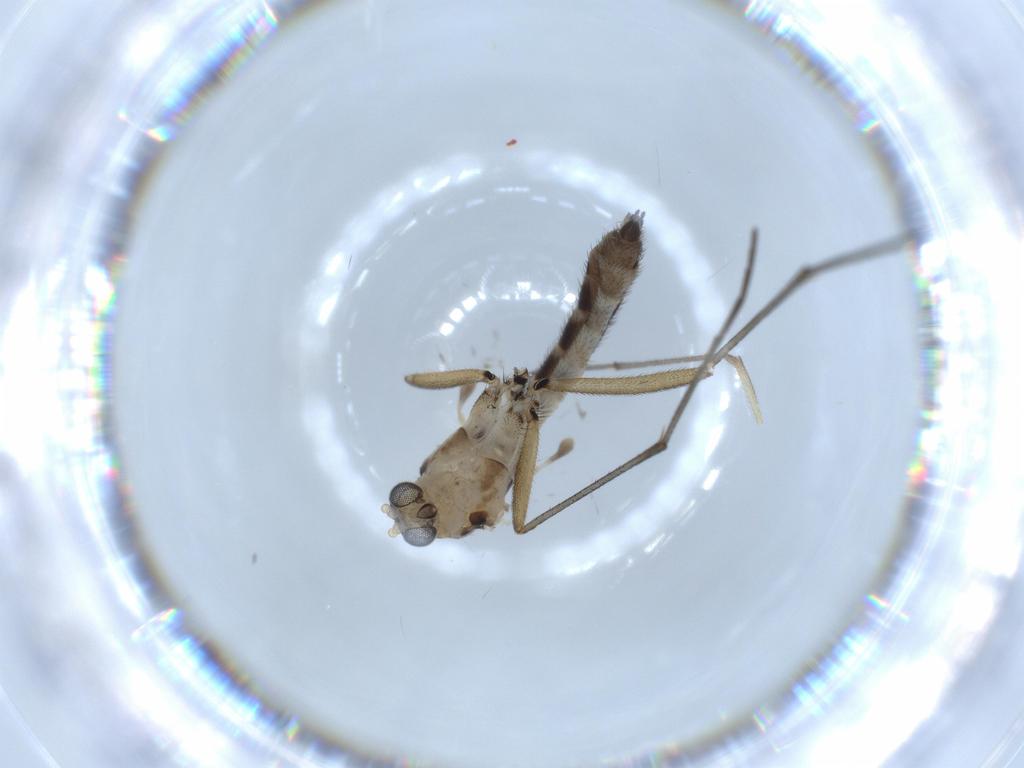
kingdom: Animalia
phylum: Arthropoda
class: Insecta
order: Diptera
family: Sciaridae
